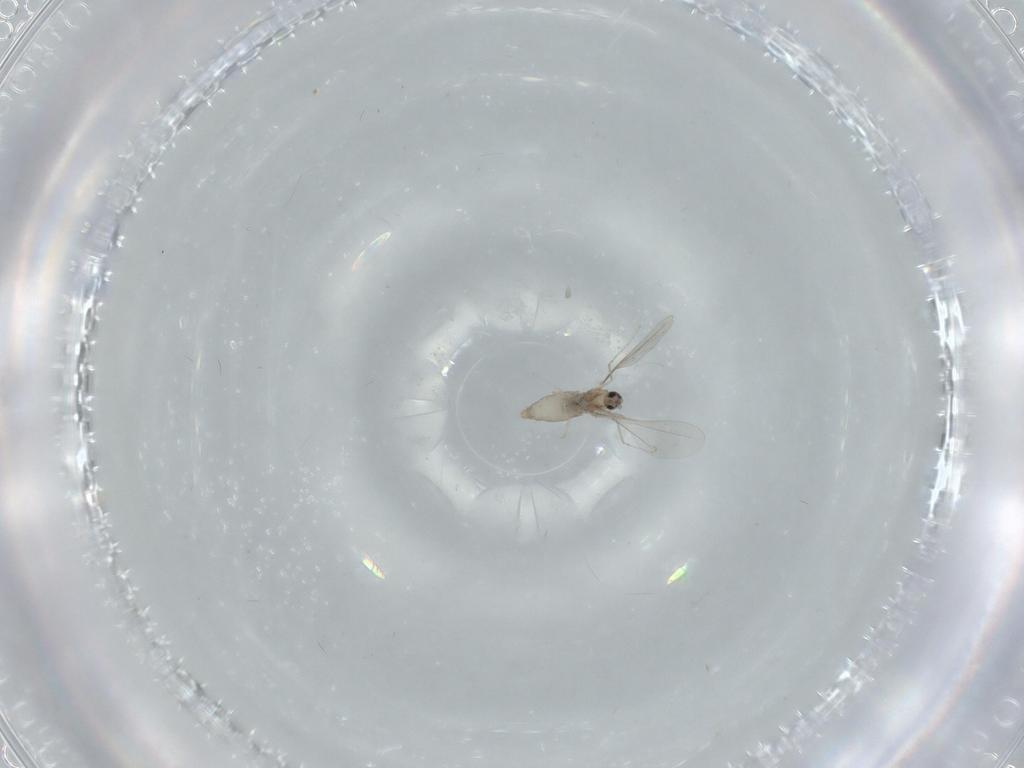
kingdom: Animalia
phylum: Arthropoda
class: Insecta
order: Diptera
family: Cecidomyiidae
